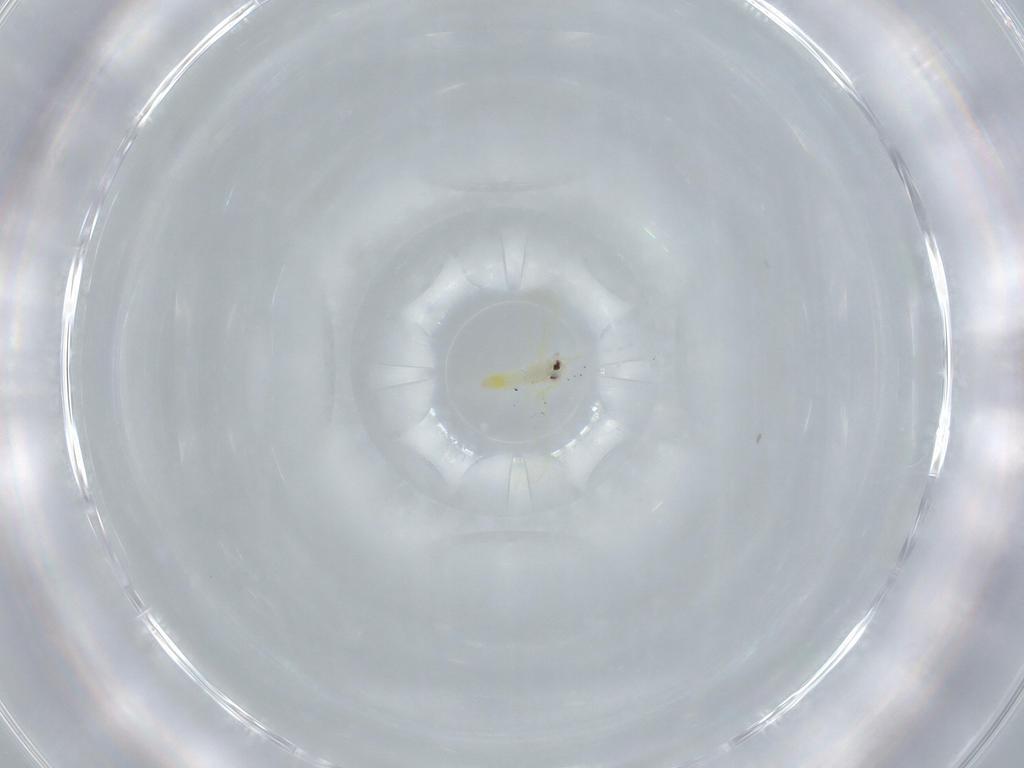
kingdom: Animalia
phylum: Arthropoda
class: Insecta
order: Hemiptera
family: Aleyrodidae
